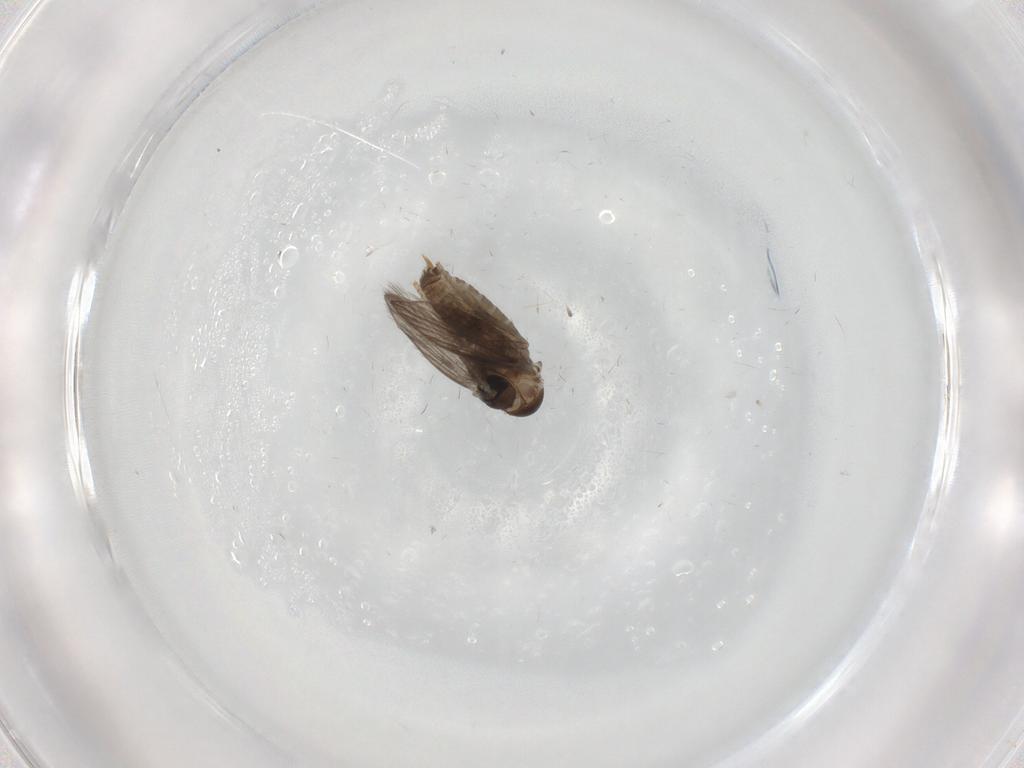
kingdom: Animalia
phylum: Arthropoda
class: Insecta
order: Diptera
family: Psychodidae
